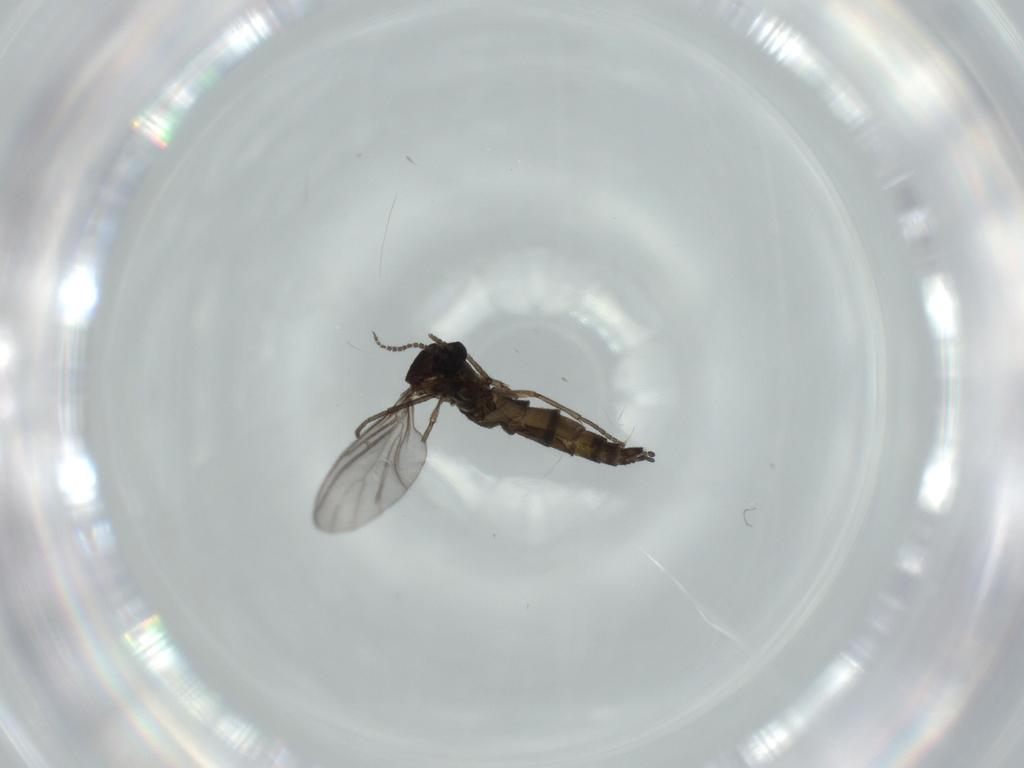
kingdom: Animalia
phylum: Arthropoda
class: Insecta
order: Diptera
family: Sciaridae
